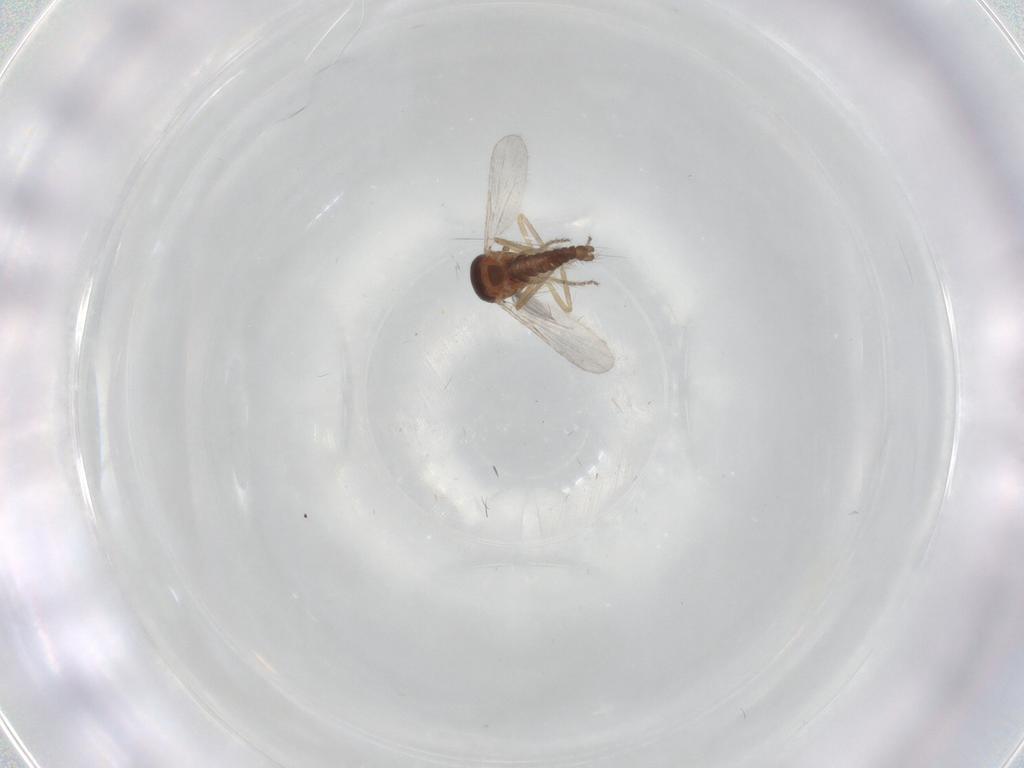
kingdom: Animalia
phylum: Arthropoda
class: Insecta
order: Diptera
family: Ceratopogonidae
